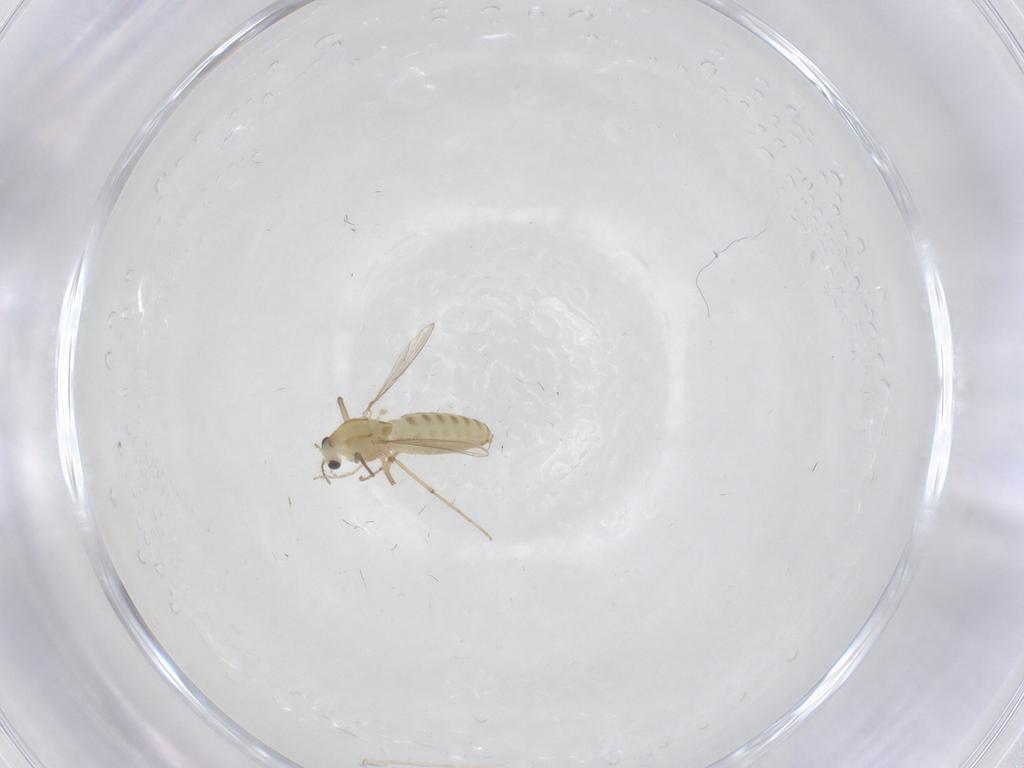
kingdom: Animalia
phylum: Arthropoda
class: Insecta
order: Diptera
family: Chironomidae
